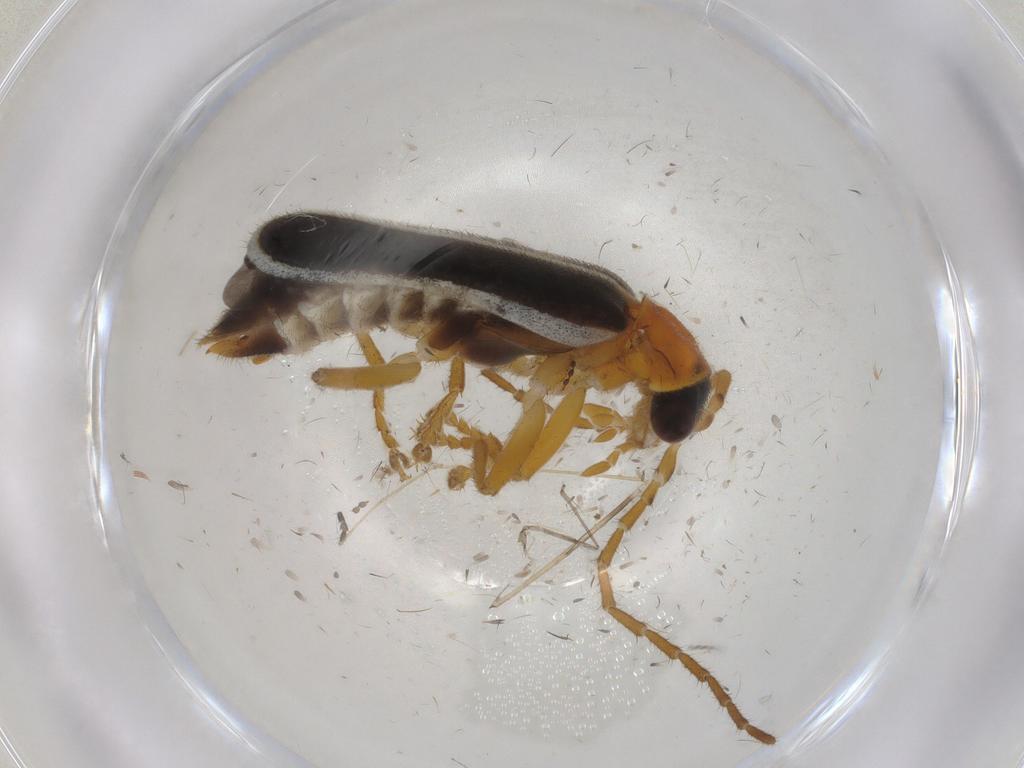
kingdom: Animalia
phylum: Arthropoda
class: Insecta
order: Coleoptera
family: Cantharidae
